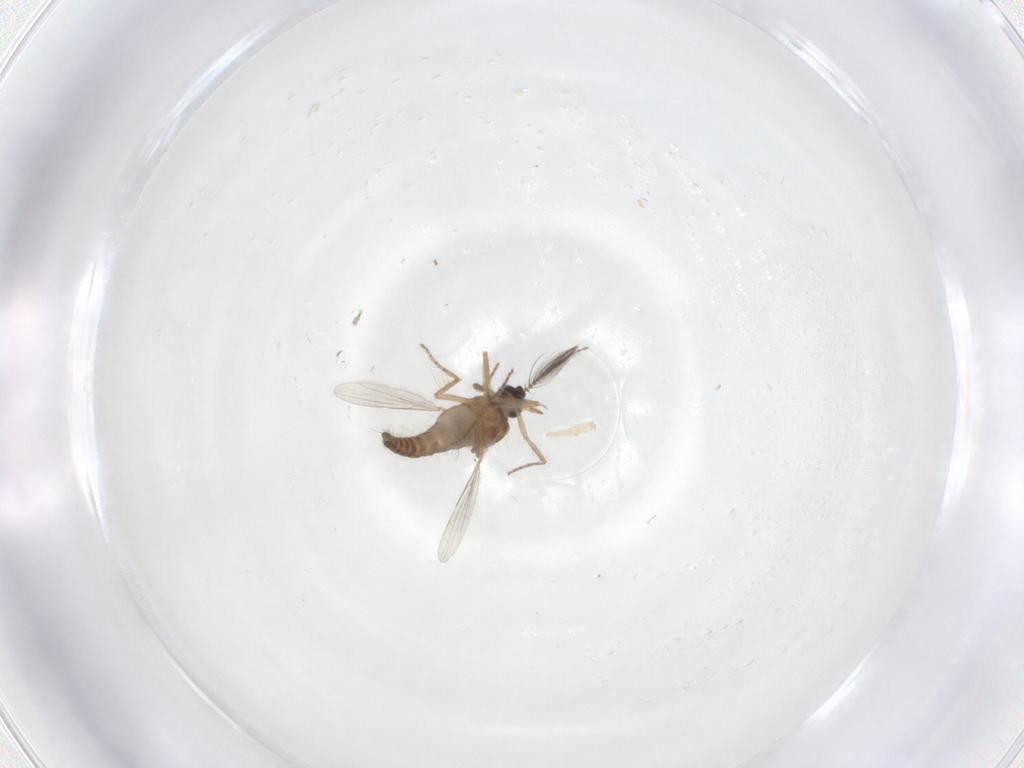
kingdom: Animalia
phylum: Arthropoda
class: Insecta
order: Diptera
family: Ceratopogonidae
